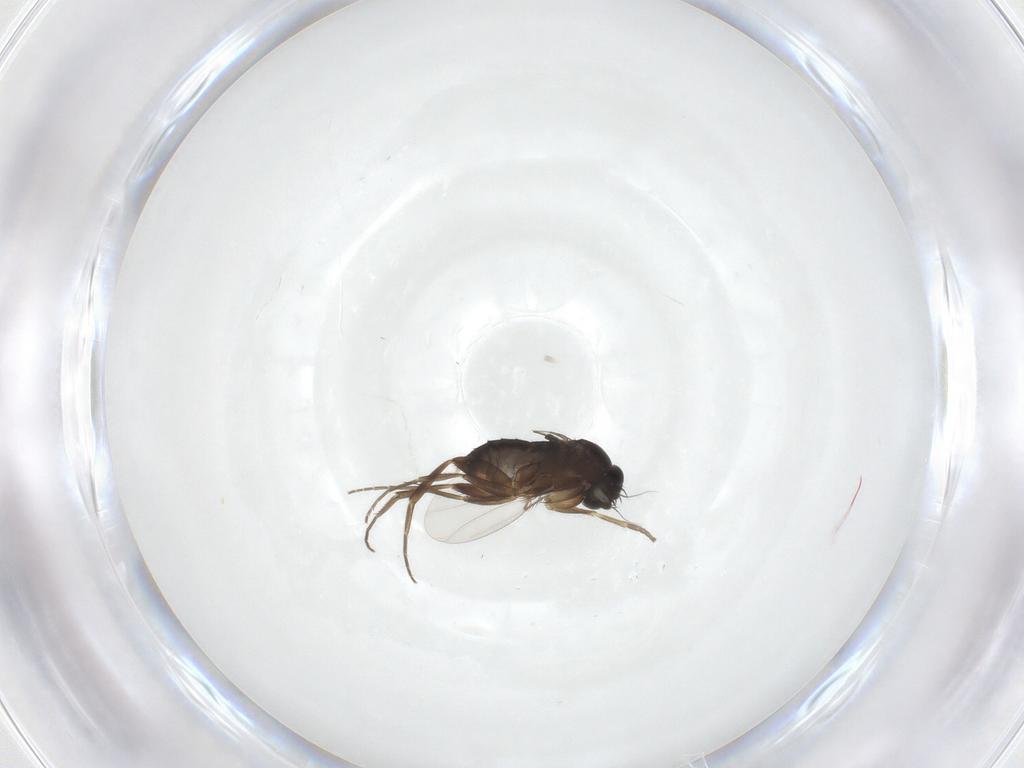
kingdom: Animalia
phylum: Arthropoda
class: Insecta
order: Diptera
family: Phoridae
